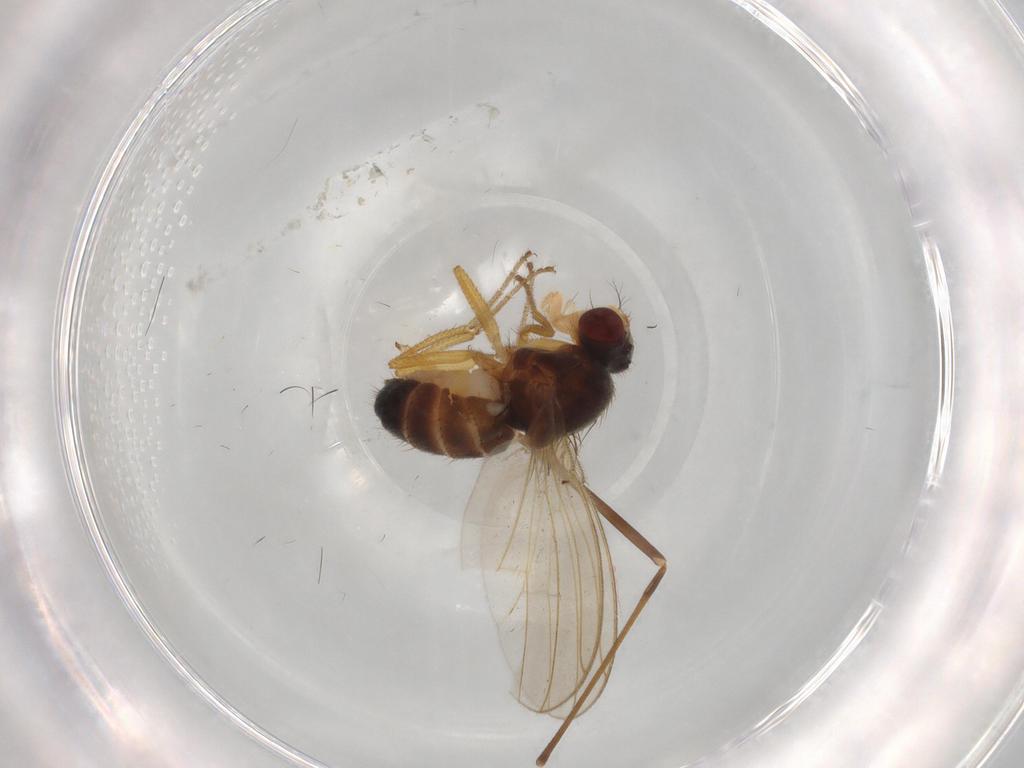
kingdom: Animalia
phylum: Arthropoda
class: Insecta
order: Diptera
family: Drosophilidae
